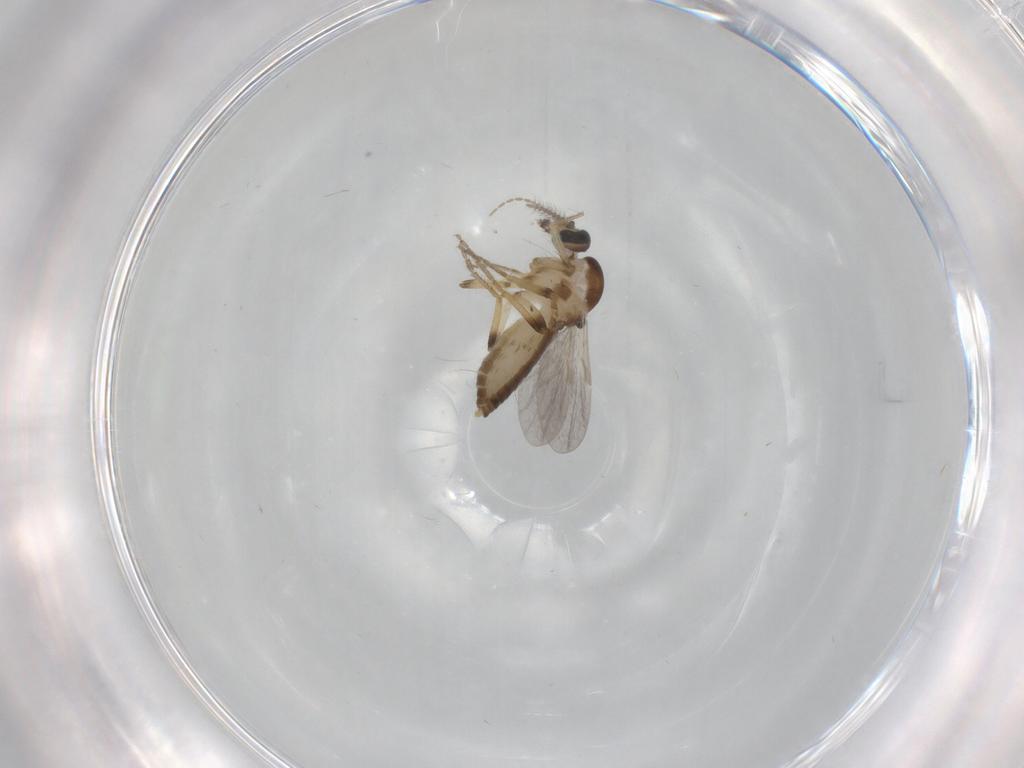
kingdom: Animalia
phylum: Arthropoda
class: Insecta
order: Diptera
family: Ceratopogonidae
